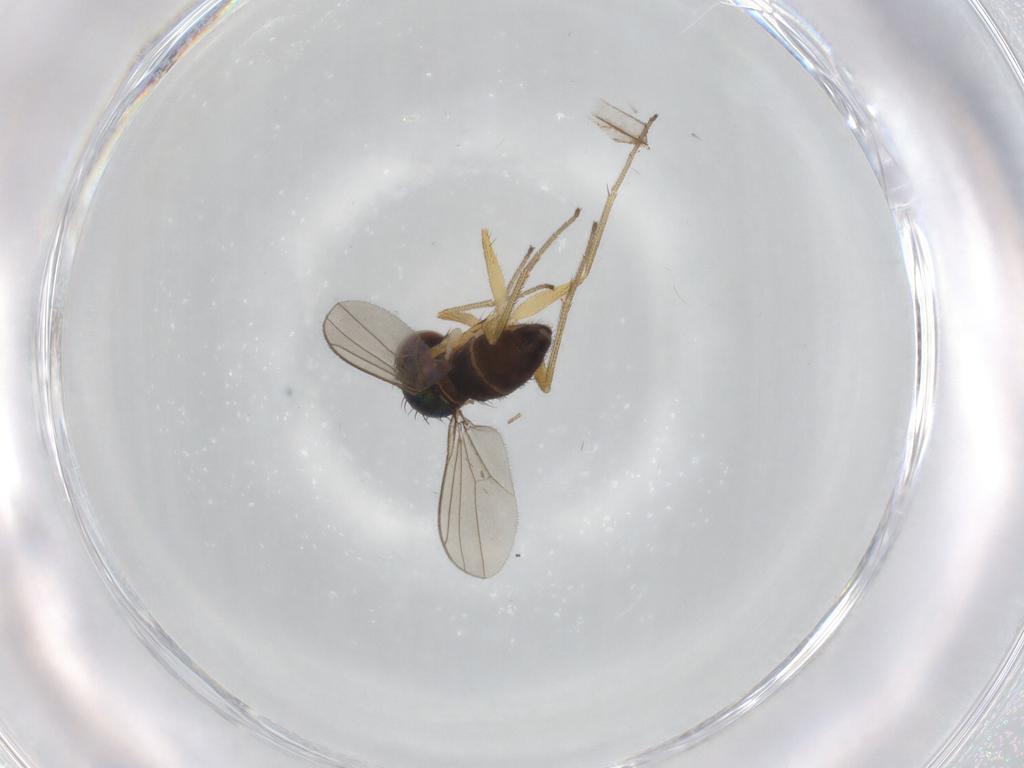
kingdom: Animalia
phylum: Arthropoda
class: Insecta
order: Diptera
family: Dolichopodidae
